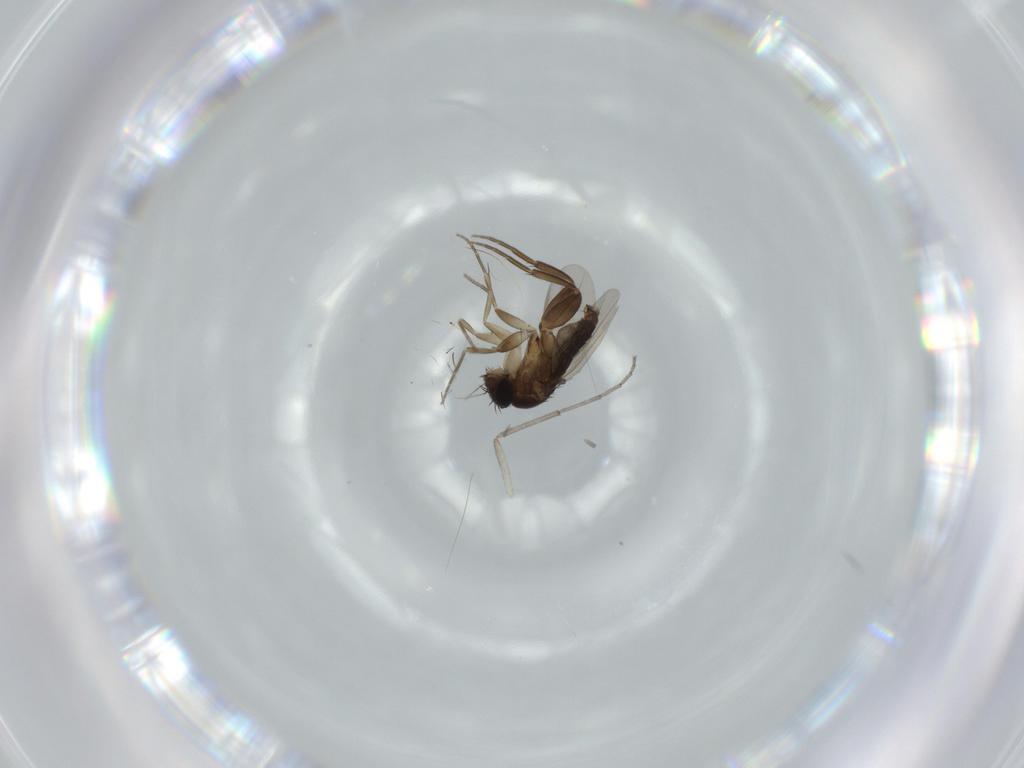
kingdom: Animalia
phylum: Arthropoda
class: Insecta
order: Diptera
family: Phoridae
